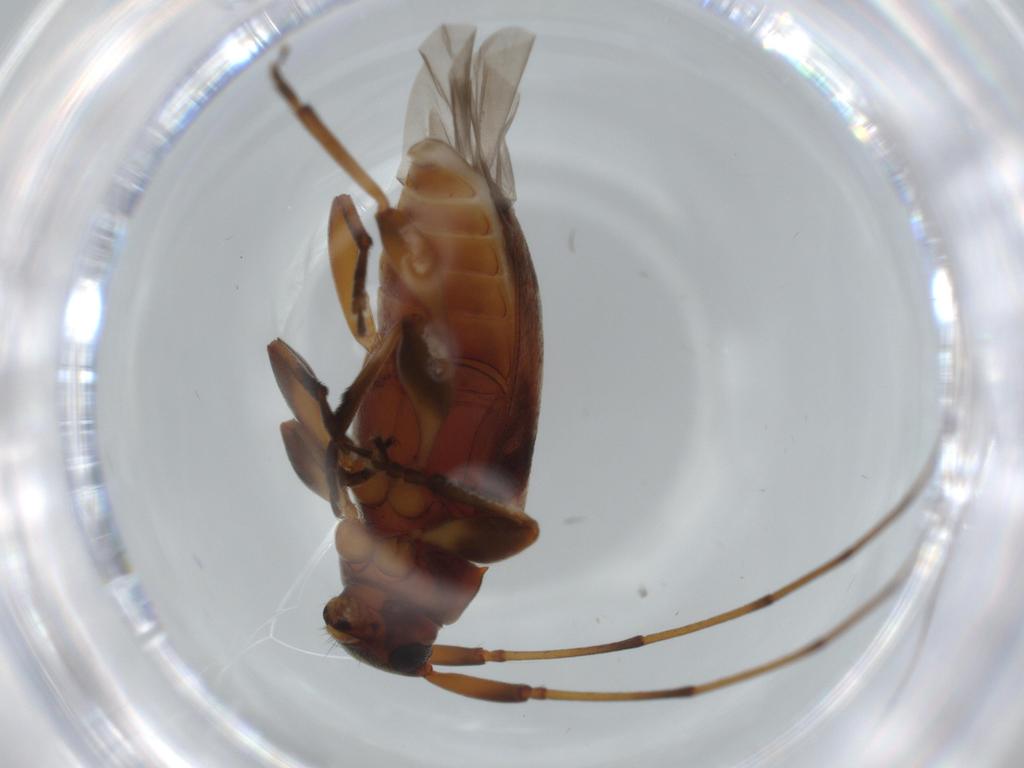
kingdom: Animalia
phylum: Arthropoda
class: Insecta
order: Coleoptera
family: Cerambycidae
